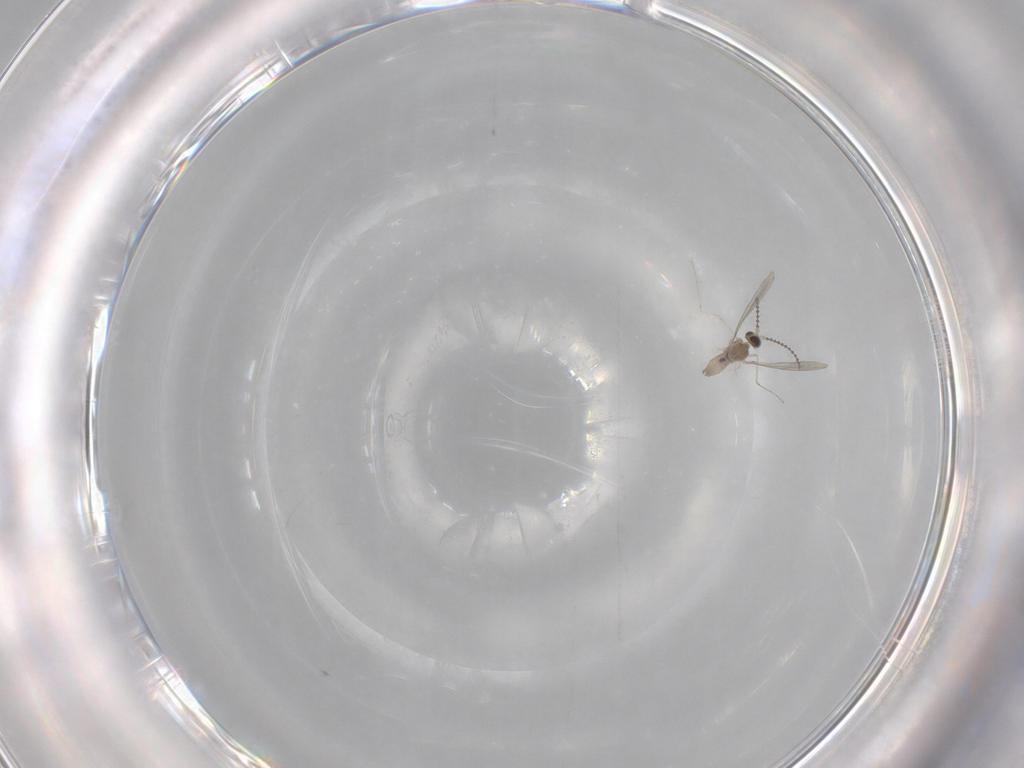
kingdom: Animalia
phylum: Arthropoda
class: Insecta
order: Diptera
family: Cecidomyiidae
